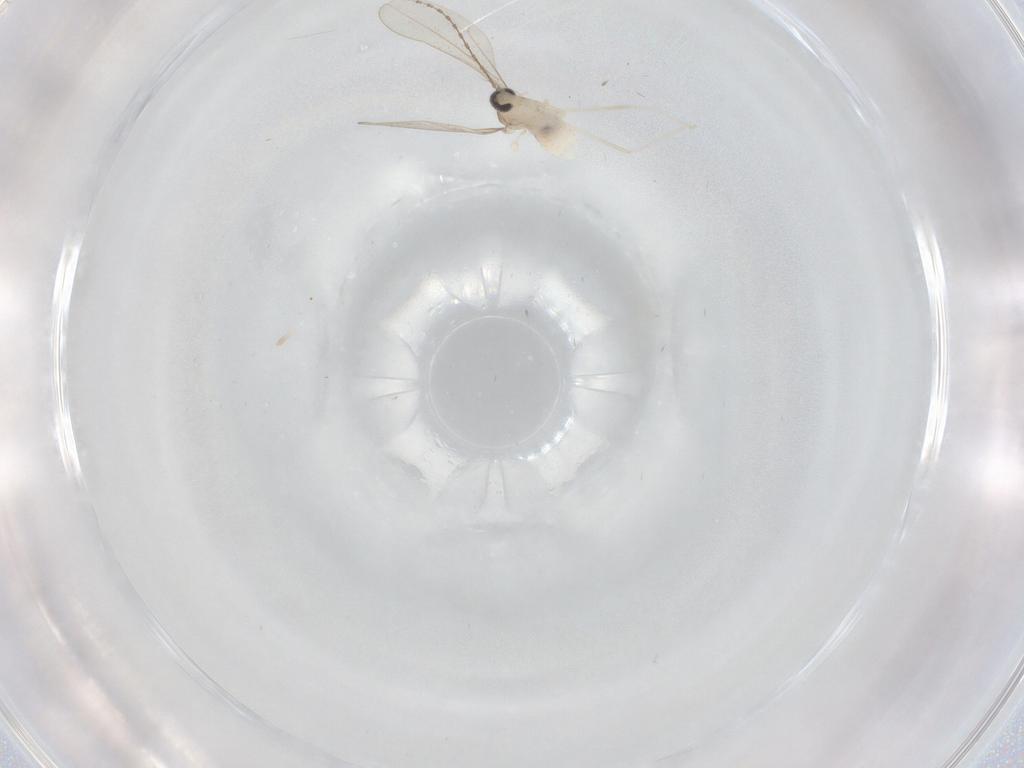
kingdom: Animalia
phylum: Arthropoda
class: Insecta
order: Diptera
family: Cecidomyiidae
